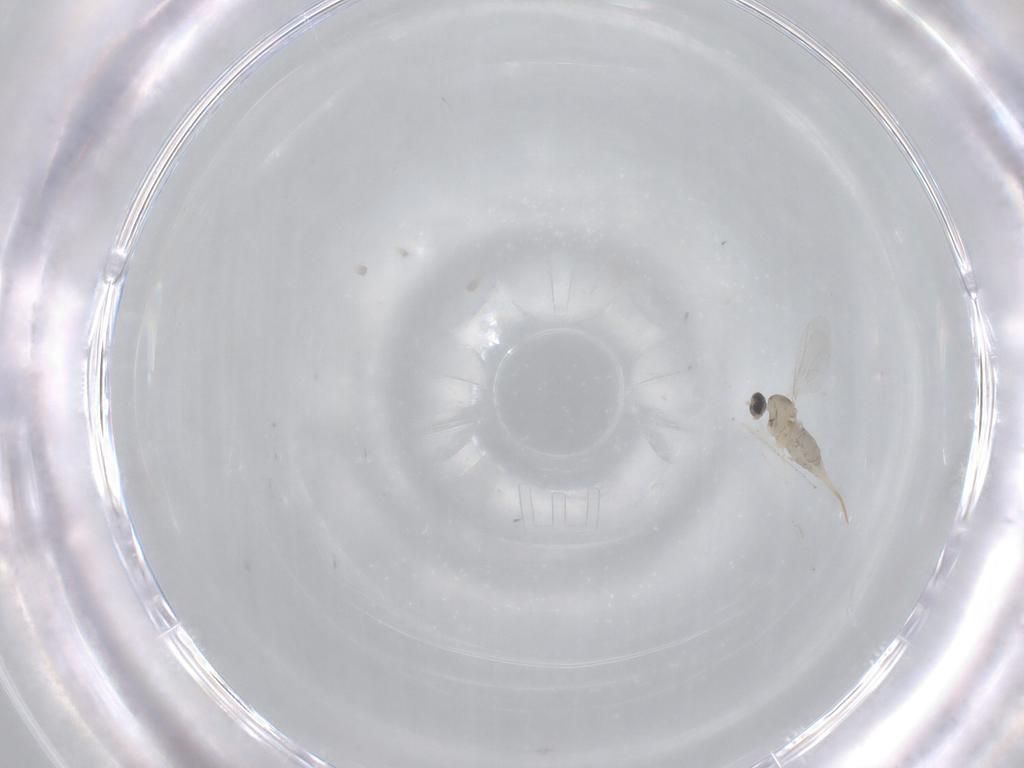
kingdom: Animalia
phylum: Arthropoda
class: Insecta
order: Diptera
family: Cecidomyiidae
